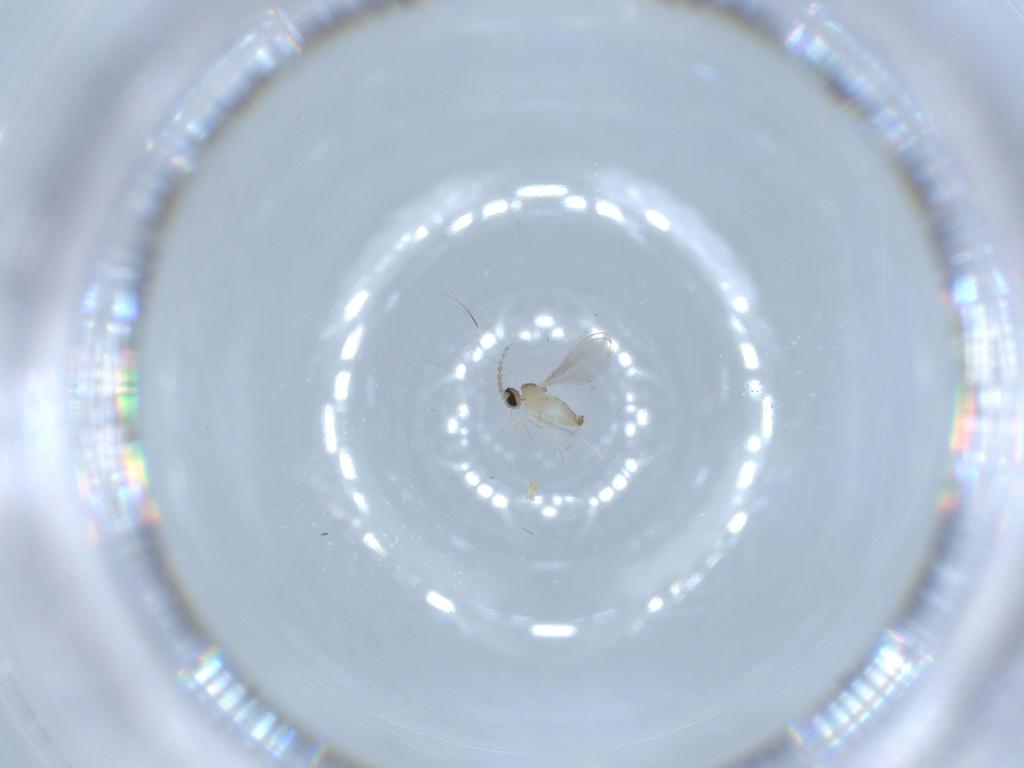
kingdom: Animalia
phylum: Arthropoda
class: Insecta
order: Diptera
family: Cecidomyiidae
